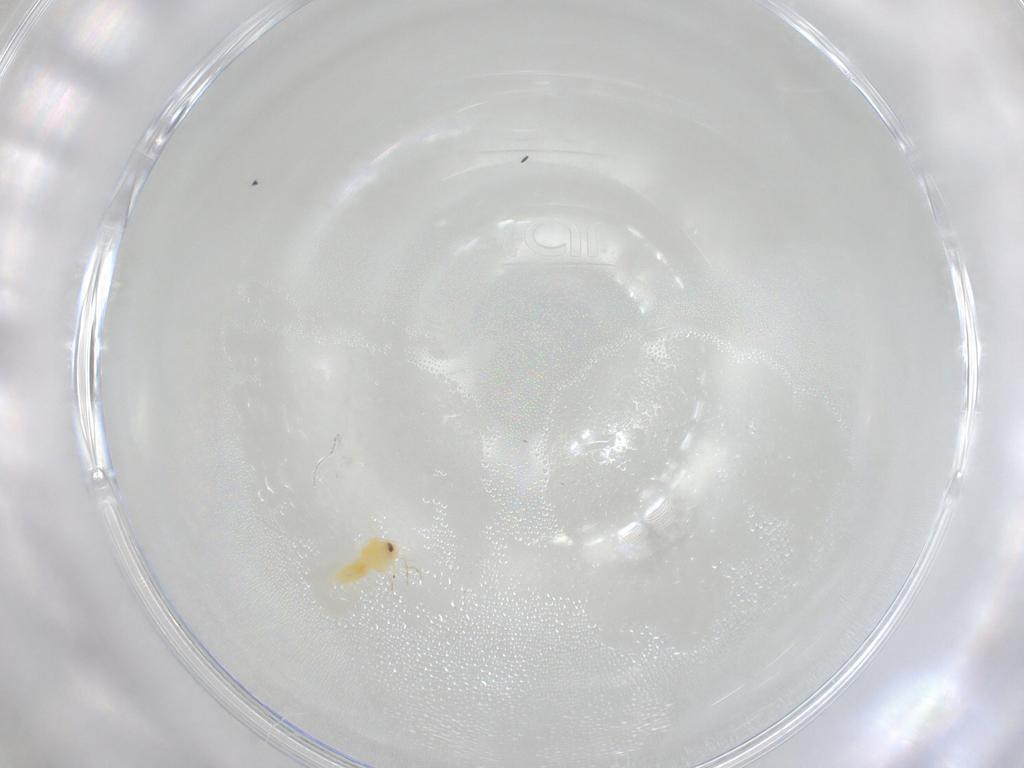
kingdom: Animalia
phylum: Arthropoda
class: Insecta
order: Hemiptera
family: Aleyrodidae
